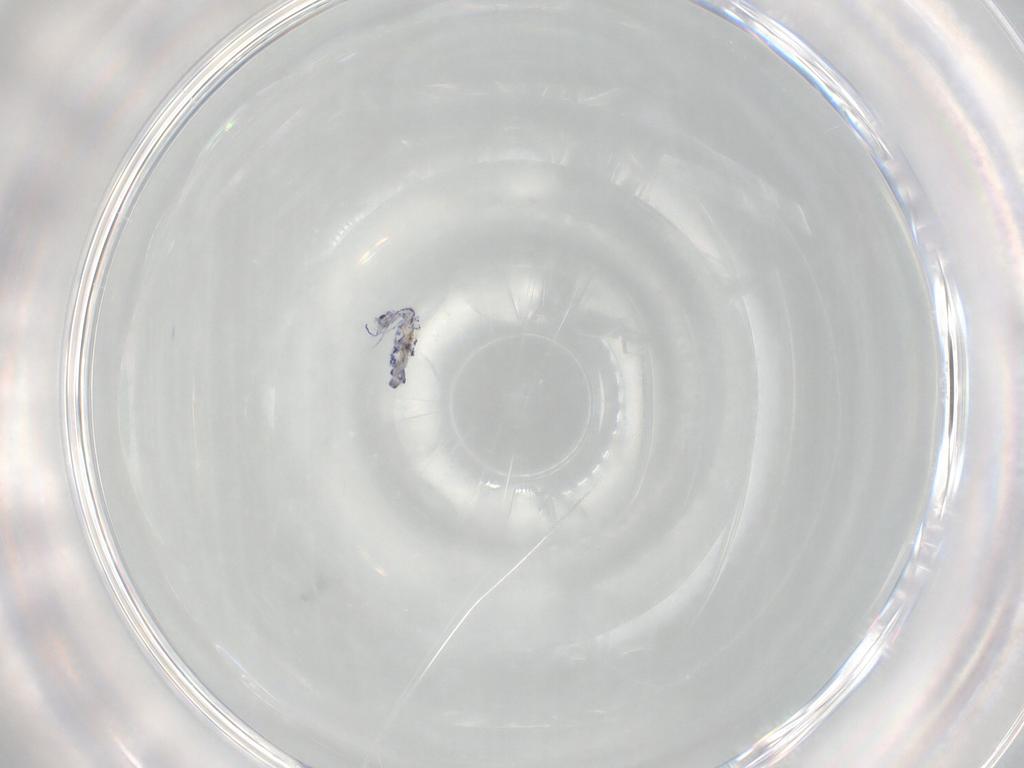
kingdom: Animalia
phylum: Arthropoda
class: Collembola
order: Entomobryomorpha
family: Entomobryidae
